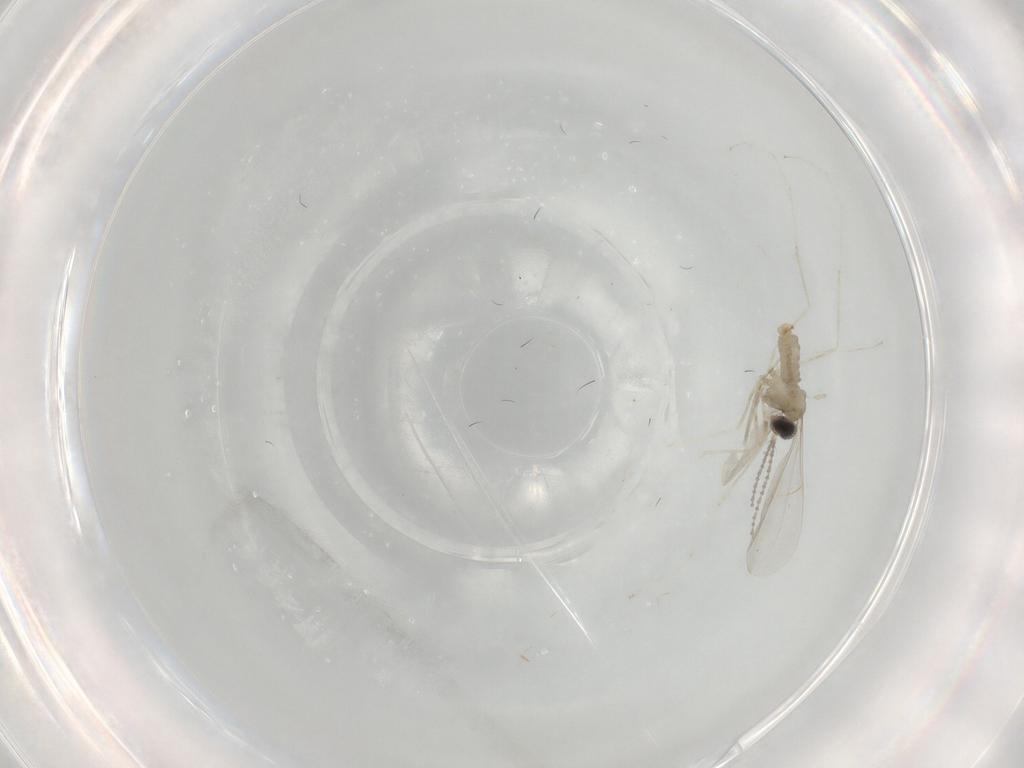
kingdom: Animalia
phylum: Arthropoda
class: Insecta
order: Diptera
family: Cecidomyiidae
